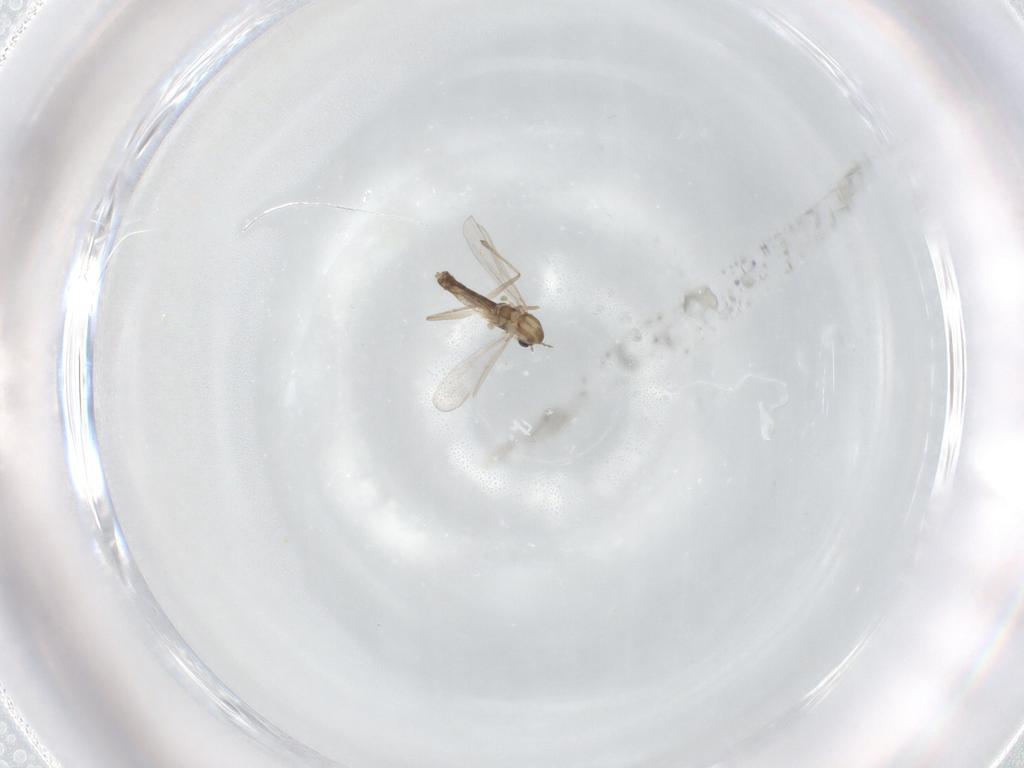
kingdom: Animalia
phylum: Arthropoda
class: Insecta
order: Diptera
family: Chironomidae
